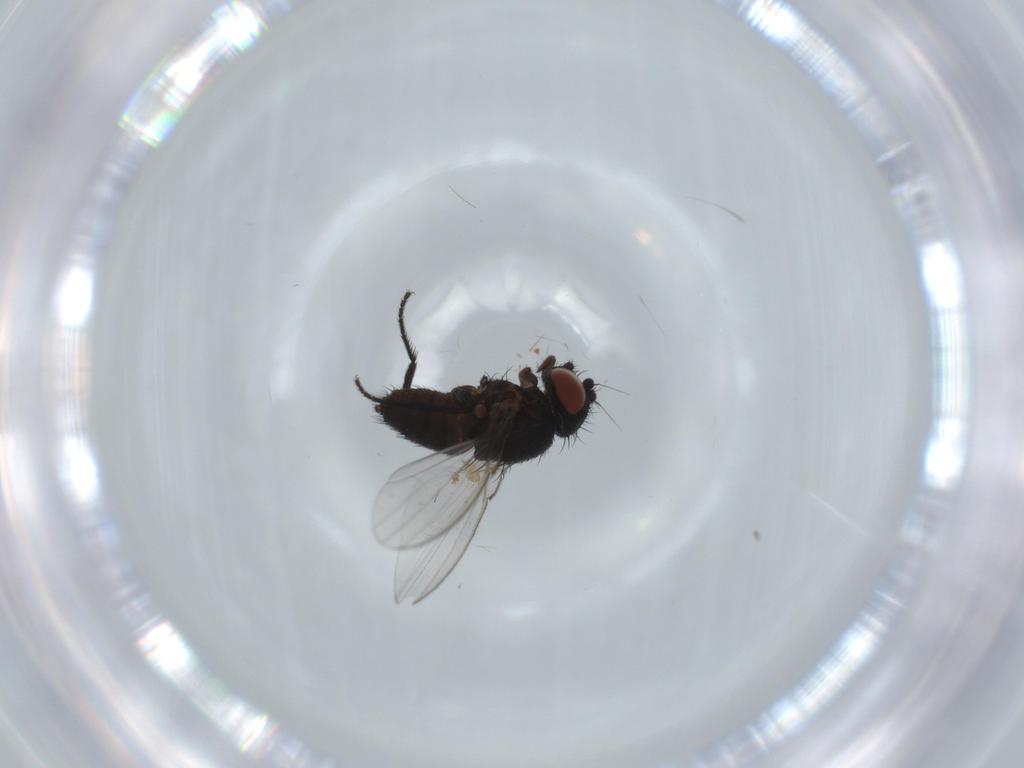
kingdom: Animalia
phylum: Arthropoda
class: Insecta
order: Diptera
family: Milichiidae
